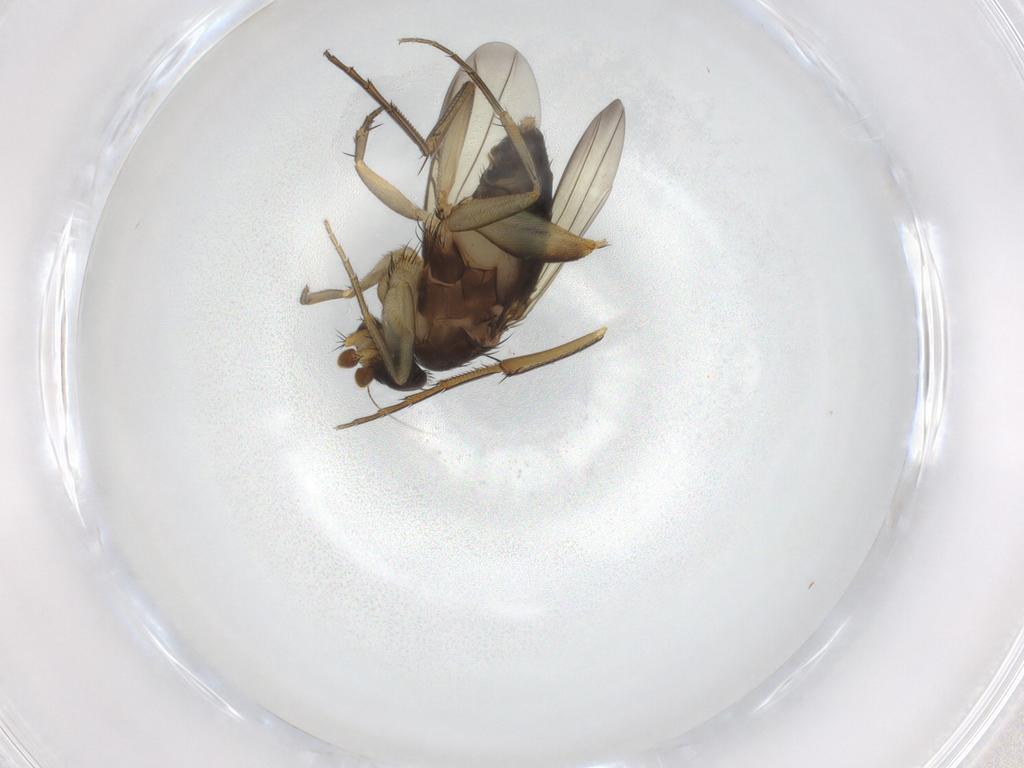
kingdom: Animalia
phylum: Arthropoda
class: Insecta
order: Diptera
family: Phoridae
